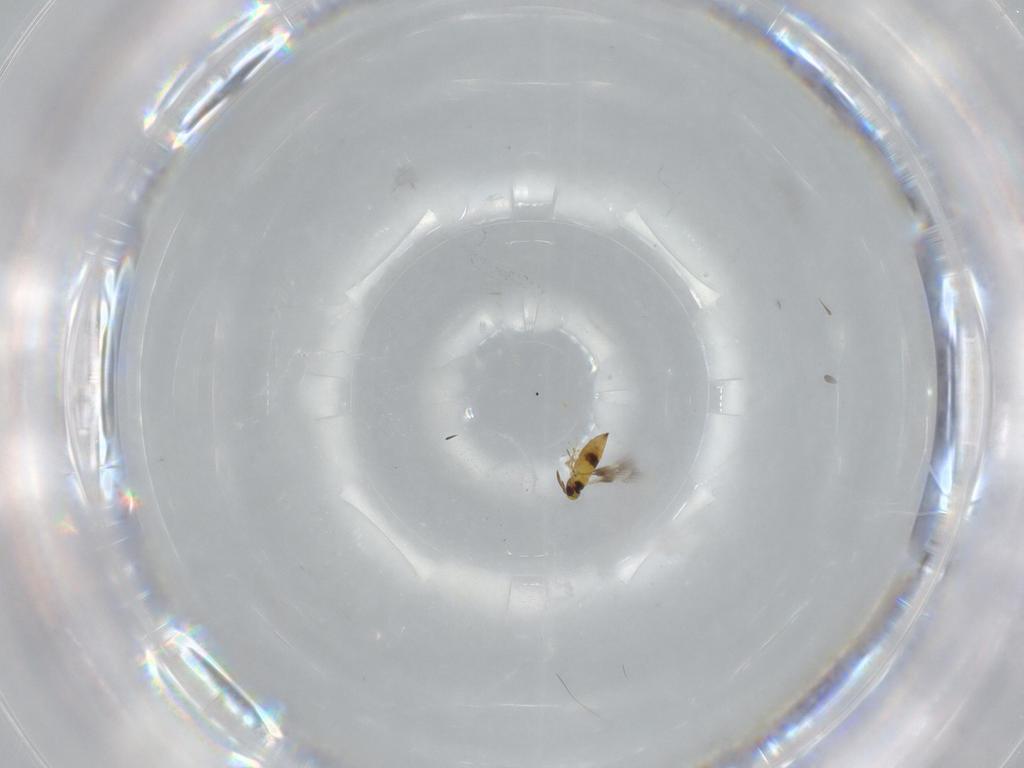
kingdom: Animalia
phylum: Arthropoda
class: Insecta
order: Hymenoptera
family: Signiphoridae
